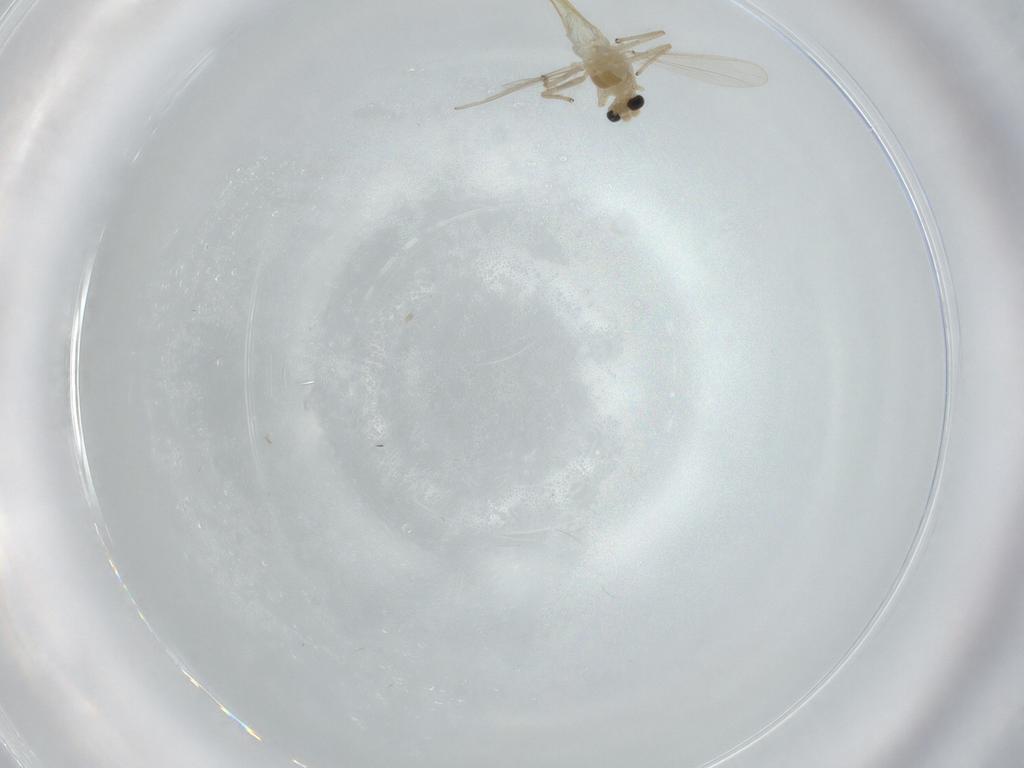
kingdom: Animalia
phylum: Arthropoda
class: Insecta
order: Diptera
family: Chironomidae
